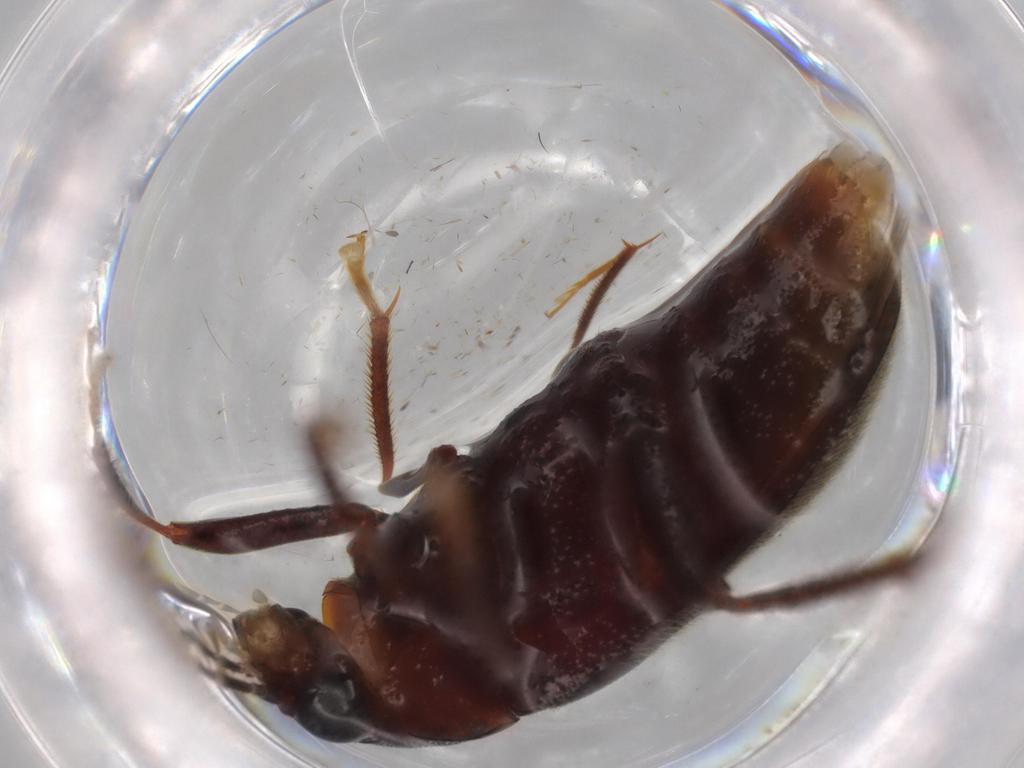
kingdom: Animalia
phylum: Arthropoda
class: Insecta
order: Coleoptera
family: Ptilodactylidae
